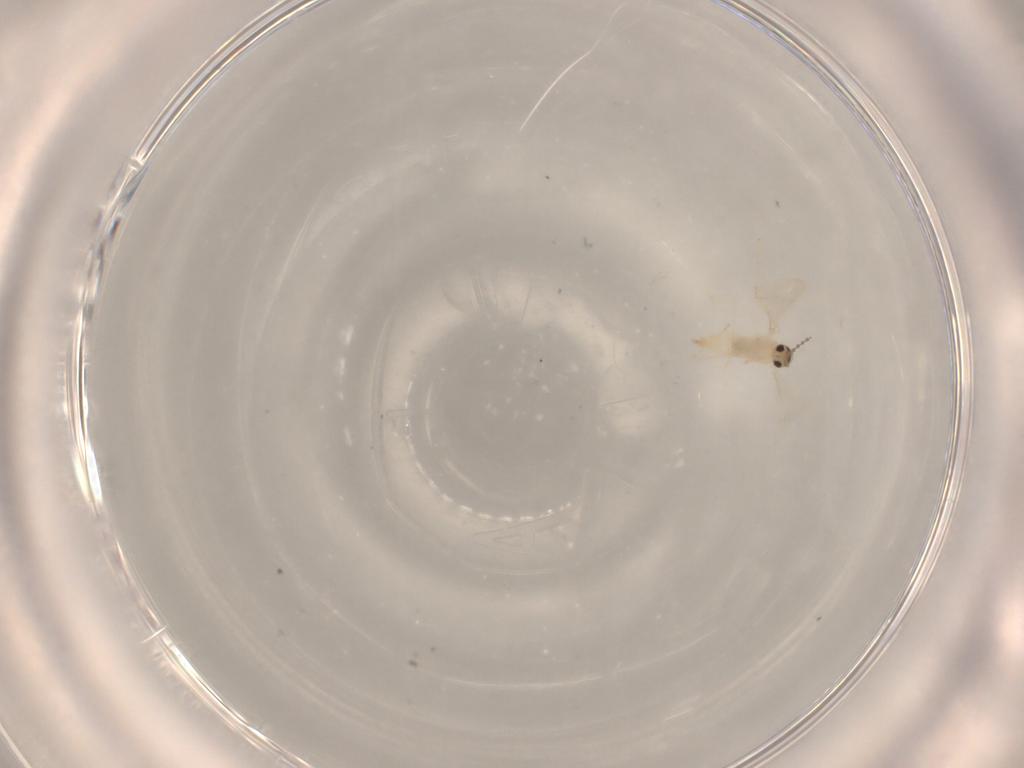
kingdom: Animalia
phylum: Arthropoda
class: Insecta
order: Diptera
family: Cecidomyiidae
